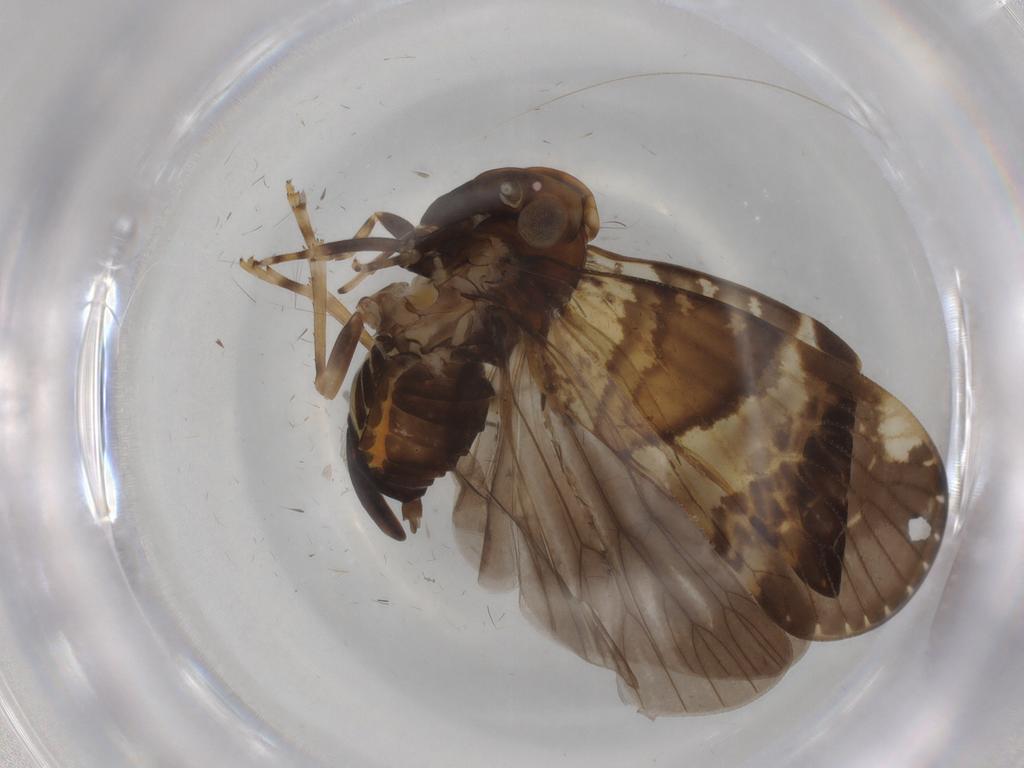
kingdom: Animalia
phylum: Arthropoda
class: Insecta
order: Hemiptera
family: Cixiidae
